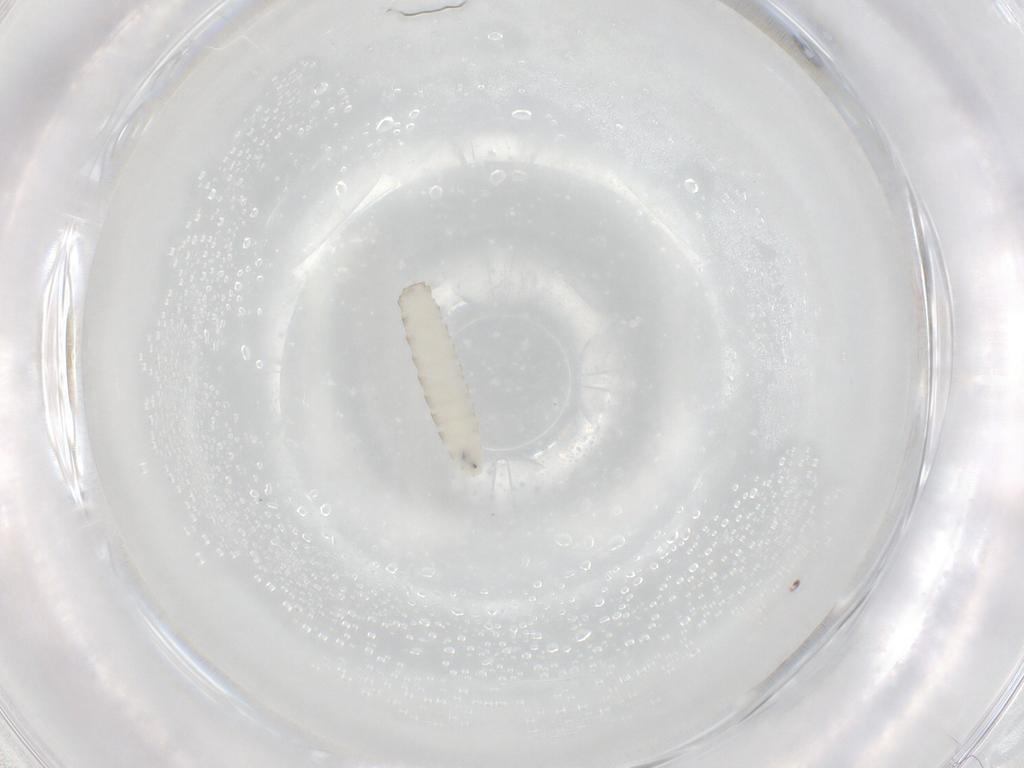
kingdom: Animalia
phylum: Arthropoda
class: Insecta
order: Diptera
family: Scathophagidae
